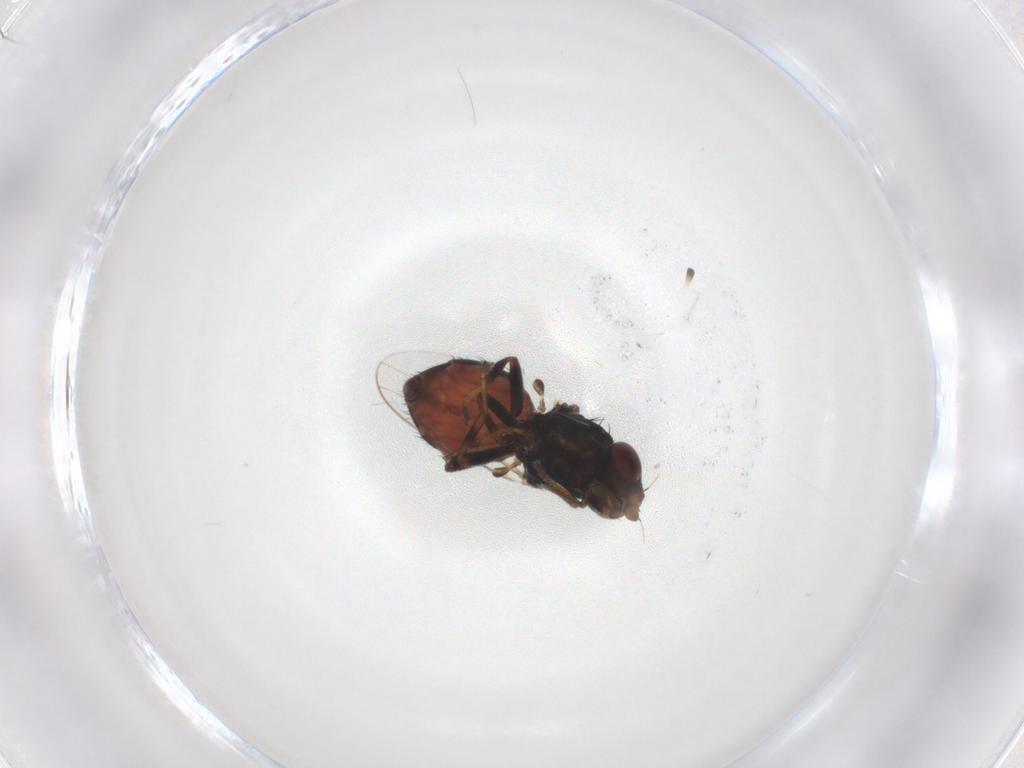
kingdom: Animalia
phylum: Arthropoda
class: Insecta
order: Diptera
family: Chloropidae
